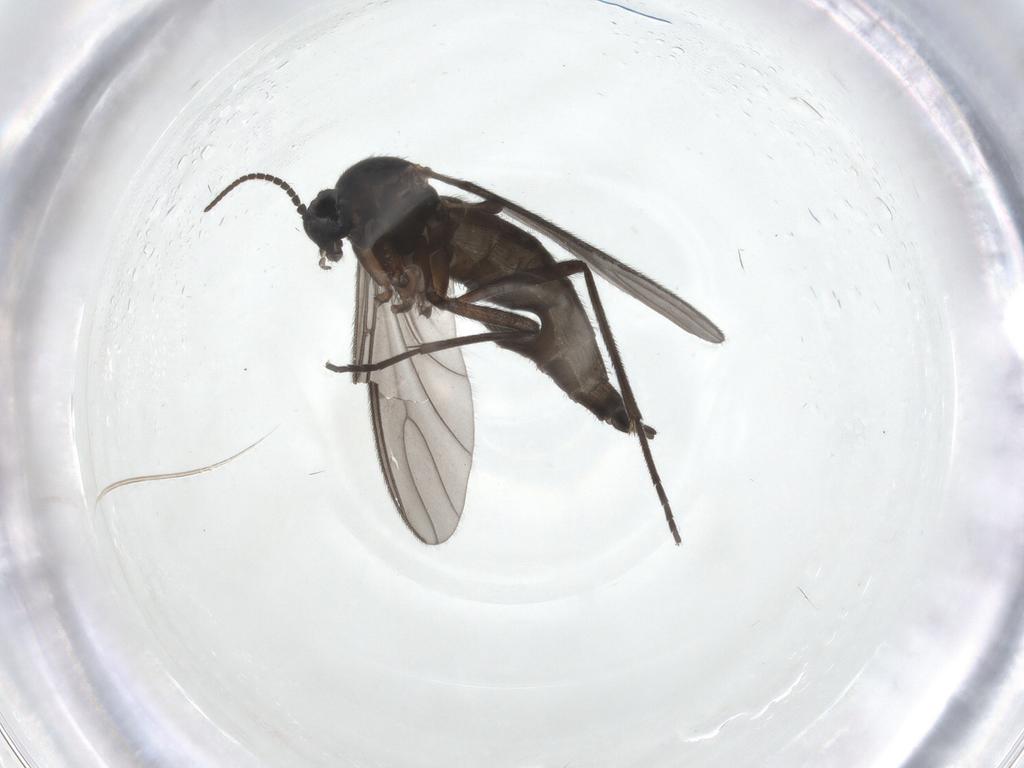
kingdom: Animalia
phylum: Arthropoda
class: Insecta
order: Diptera
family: Sciaridae
